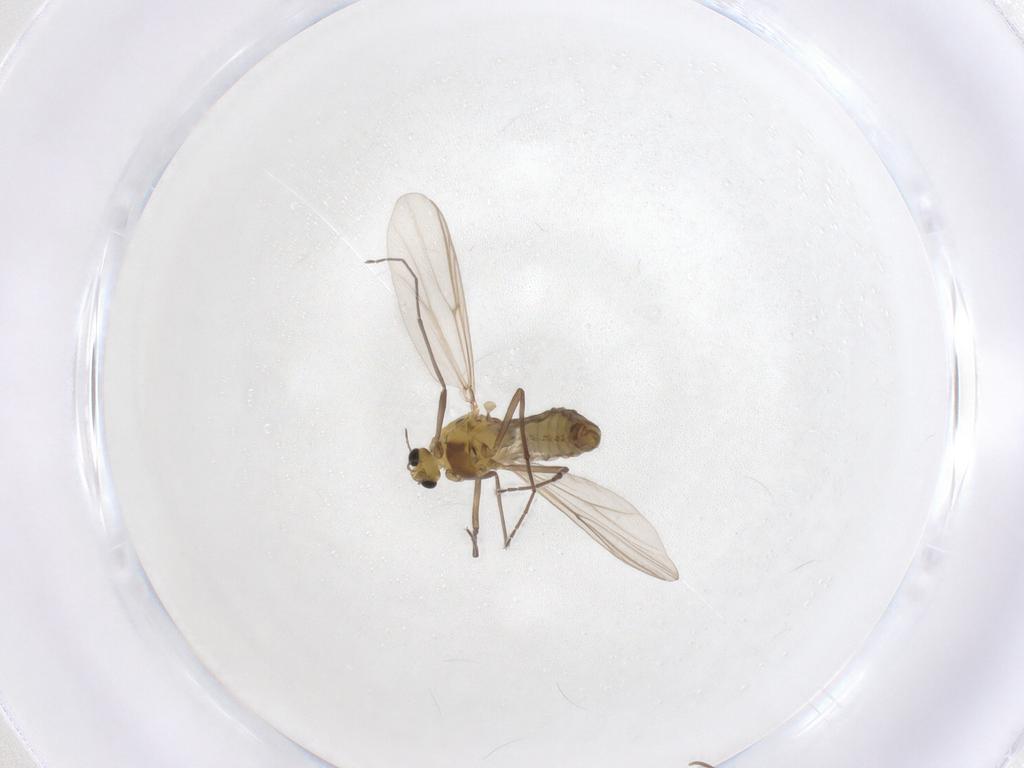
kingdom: Animalia
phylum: Arthropoda
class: Insecta
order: Diptera
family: Chironomidae
